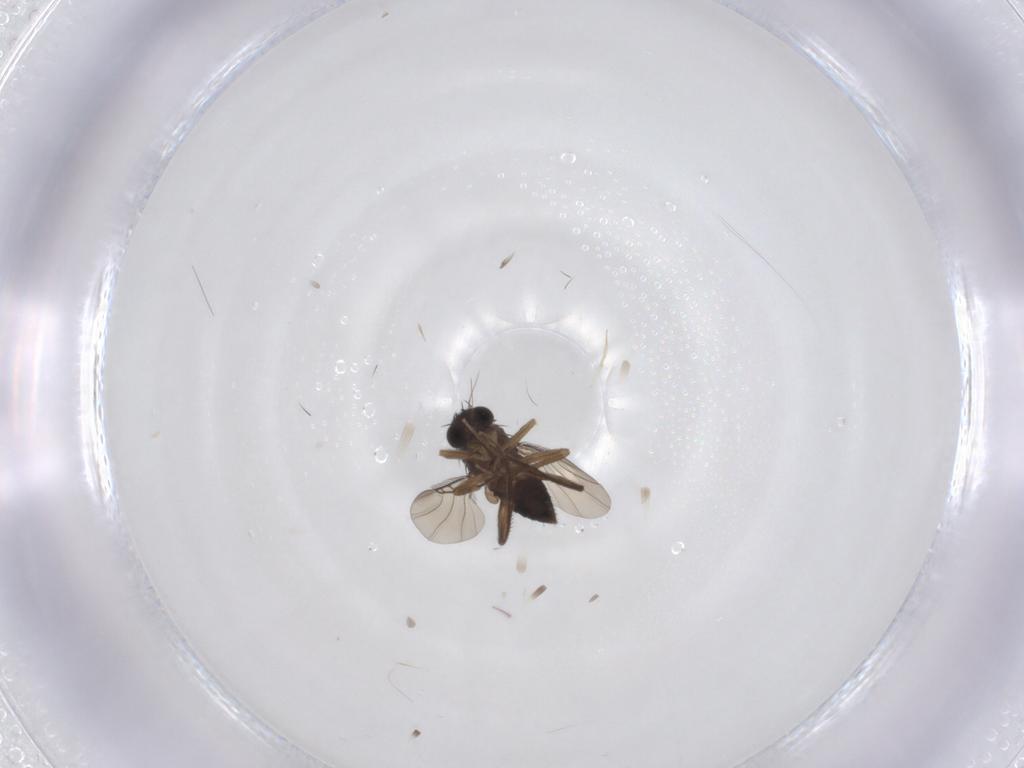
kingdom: Animalia
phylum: Arthropoda
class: Insecta
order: Diptera
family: Phoridae
